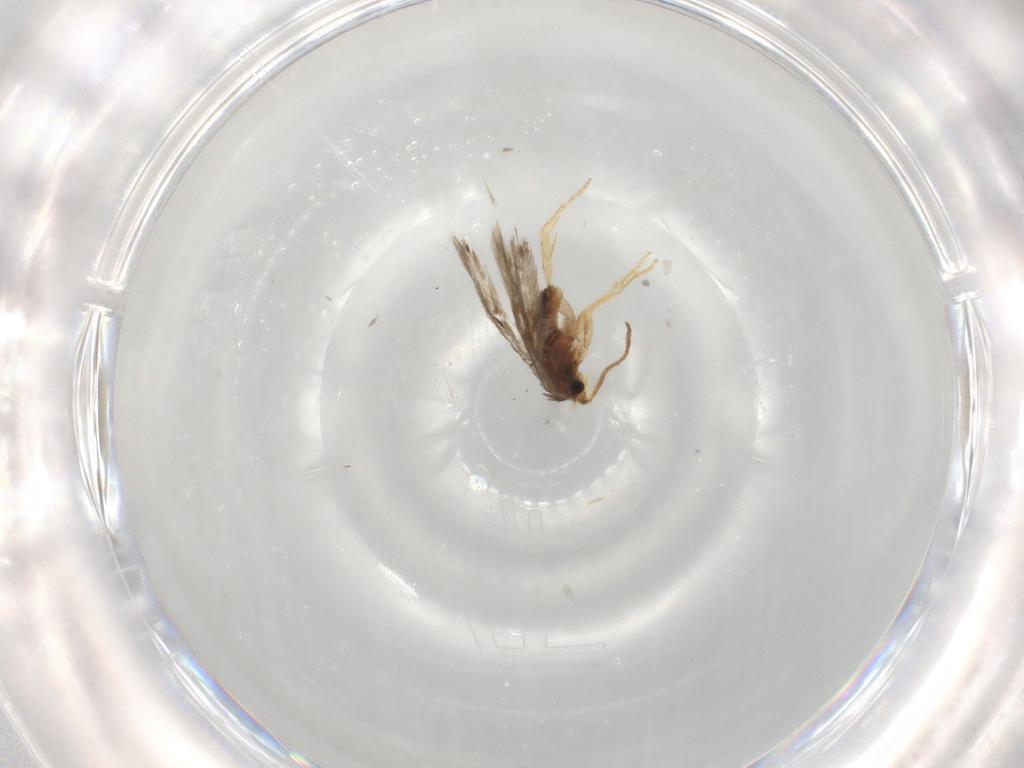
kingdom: Animalia
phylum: Arthropoda
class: Insecta
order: Lepidoptera
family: Nepticulidae
